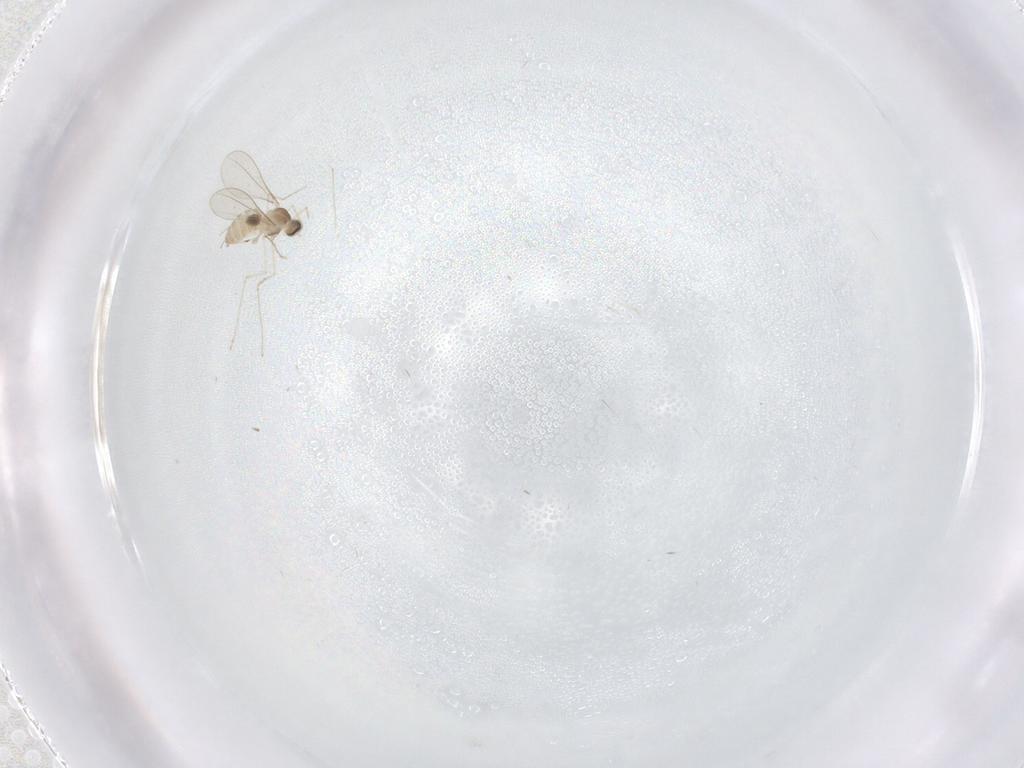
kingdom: Animalia
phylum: Arthropoda
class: Insecta
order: Diptera
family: Cecidomyiidae
